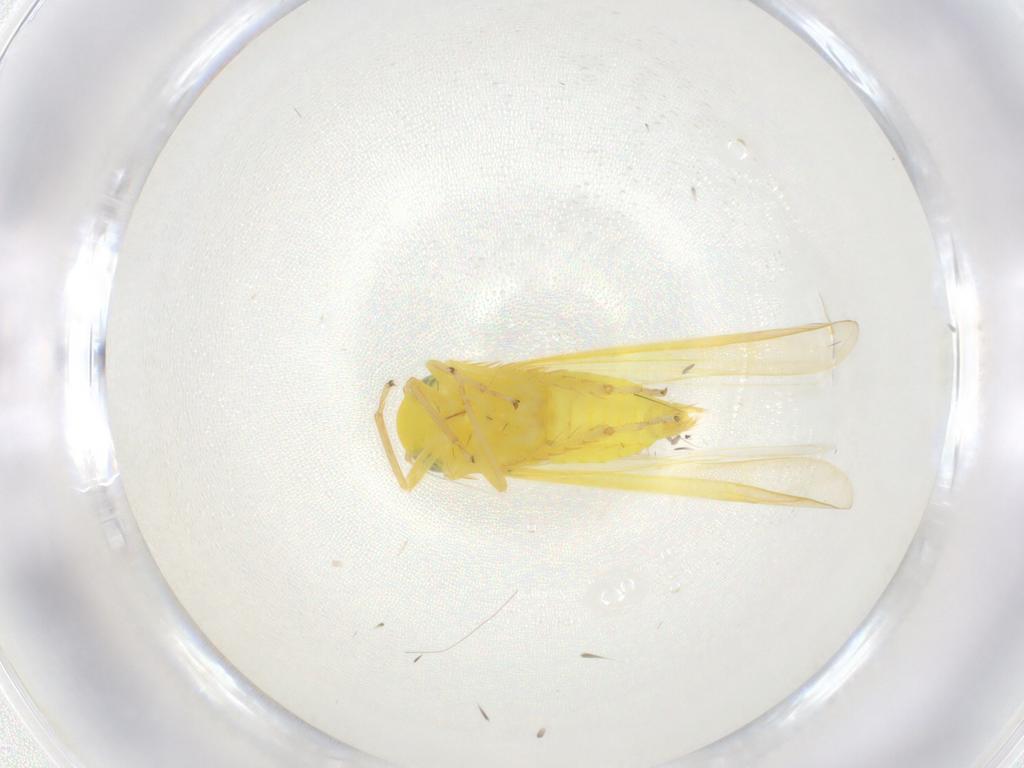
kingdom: Animalia
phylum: Arthropoda
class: Insecta
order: Hemiptera
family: Cicadellidae
